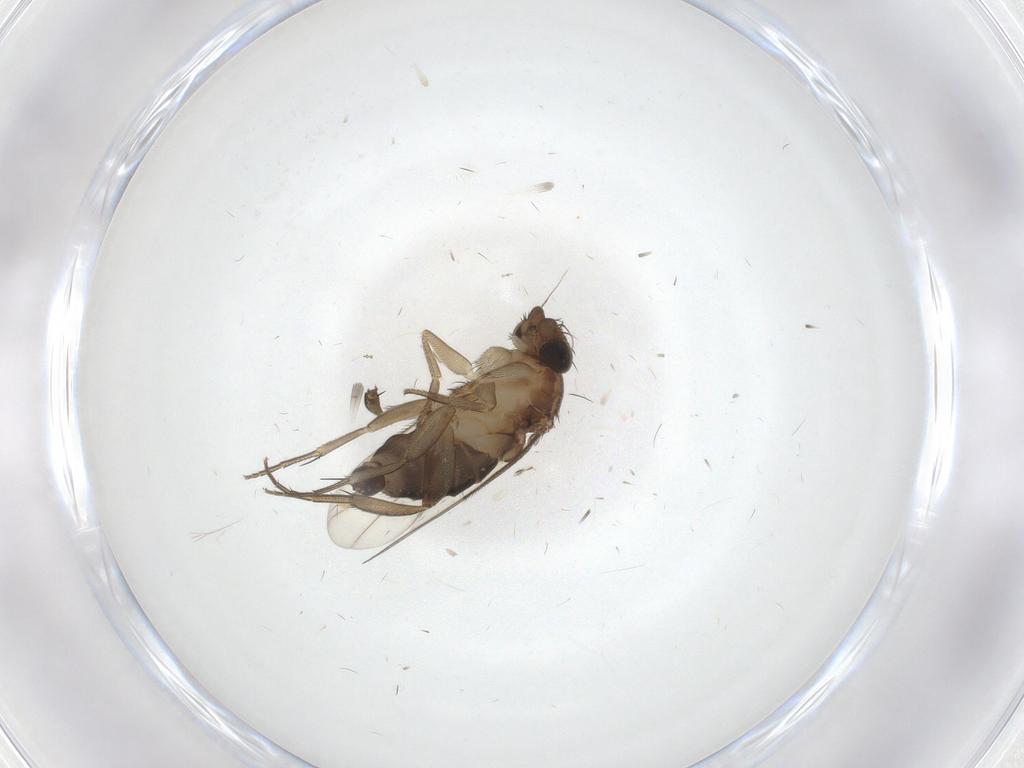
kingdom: Animalia
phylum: Arthropoda
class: Insecta
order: Diptera
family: Phoridae
